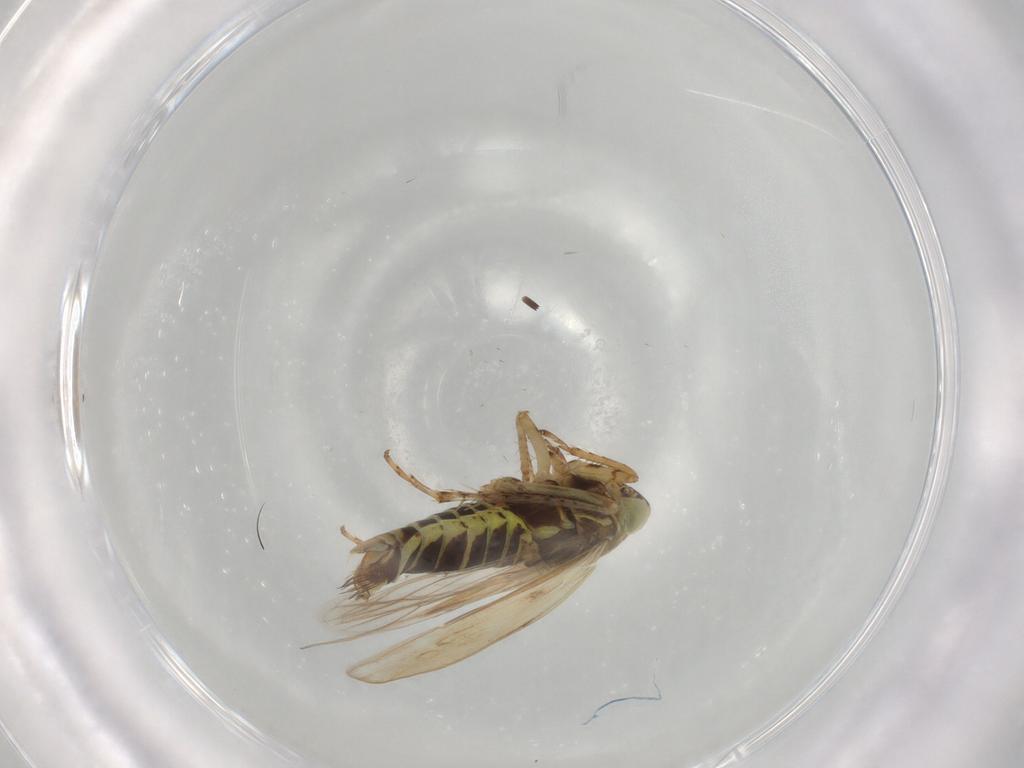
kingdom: Animalia
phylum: Arthropoda
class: Insecta
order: Hemiptera
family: Cicadellidae
